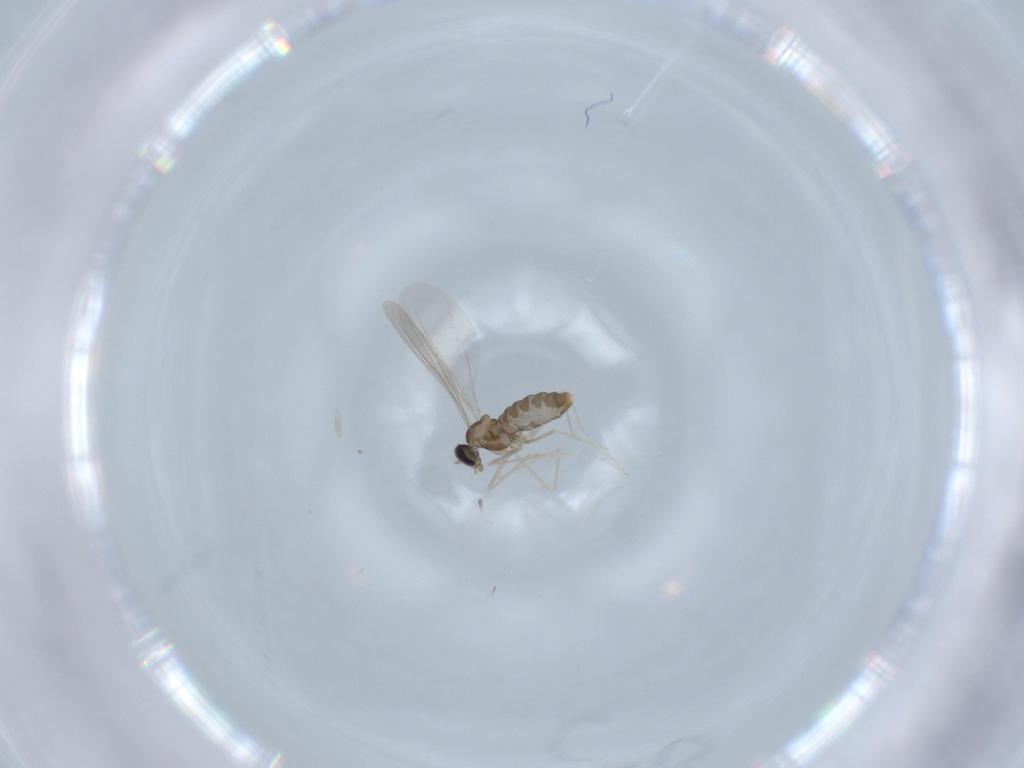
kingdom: Animalia
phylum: Arthropoda
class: Insecta
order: Diptera
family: Cecidomyiidae
